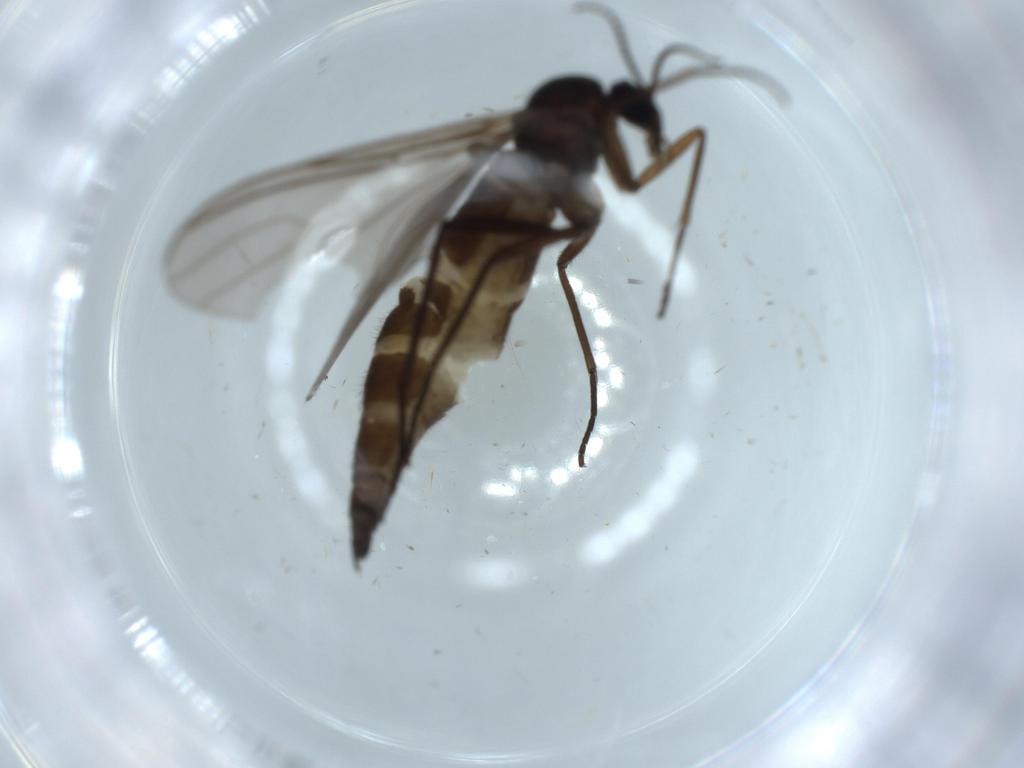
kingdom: Animalia
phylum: Arthropoda
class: Insecta
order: Diptera
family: Sciaridae
